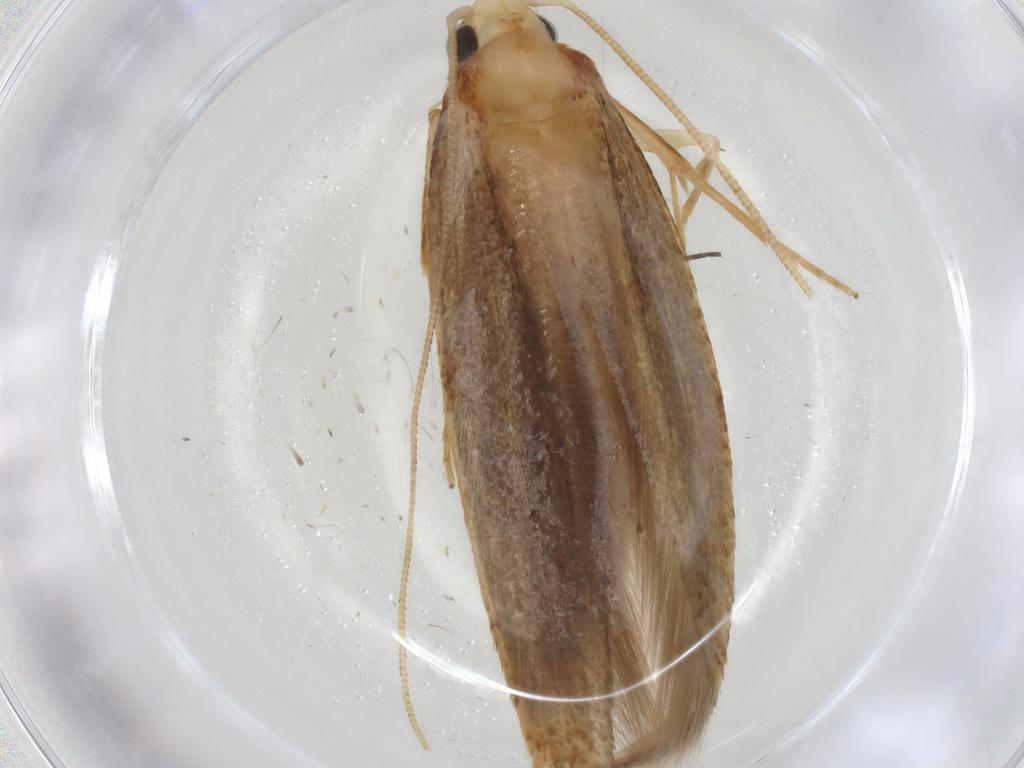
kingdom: Animalia
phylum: Arthropoda
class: Insecta
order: Lepidoptera
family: Tineidae
